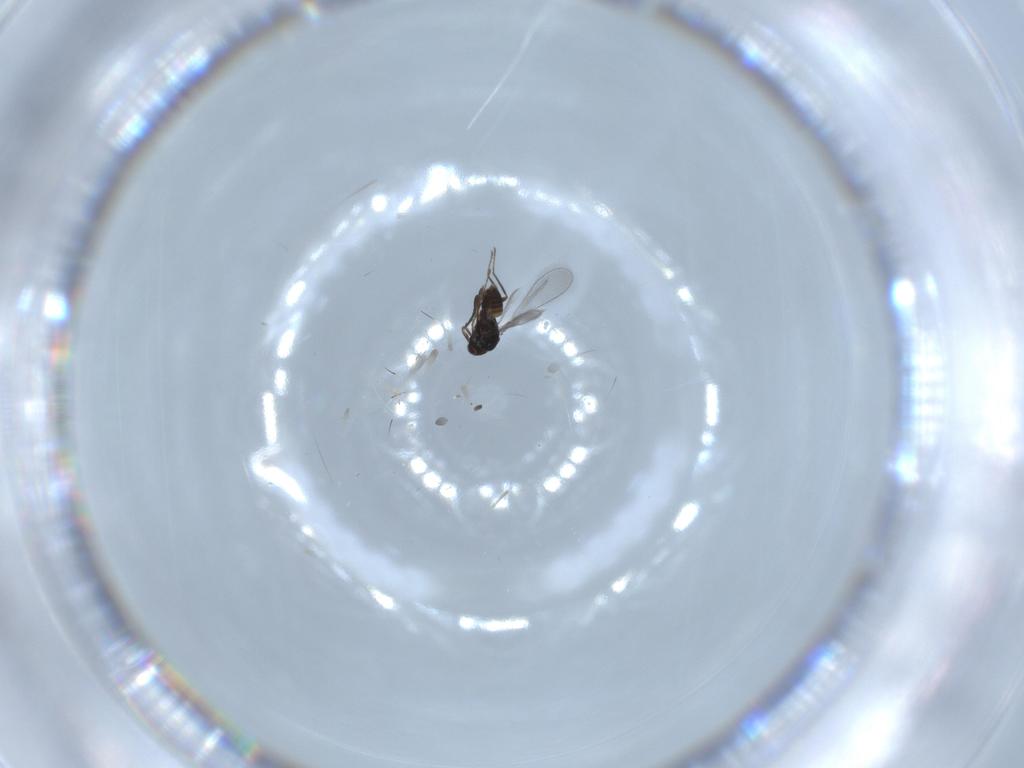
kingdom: Animalia
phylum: Arthropoda
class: Insecta
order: Hymenoptera
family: Mymaridae
